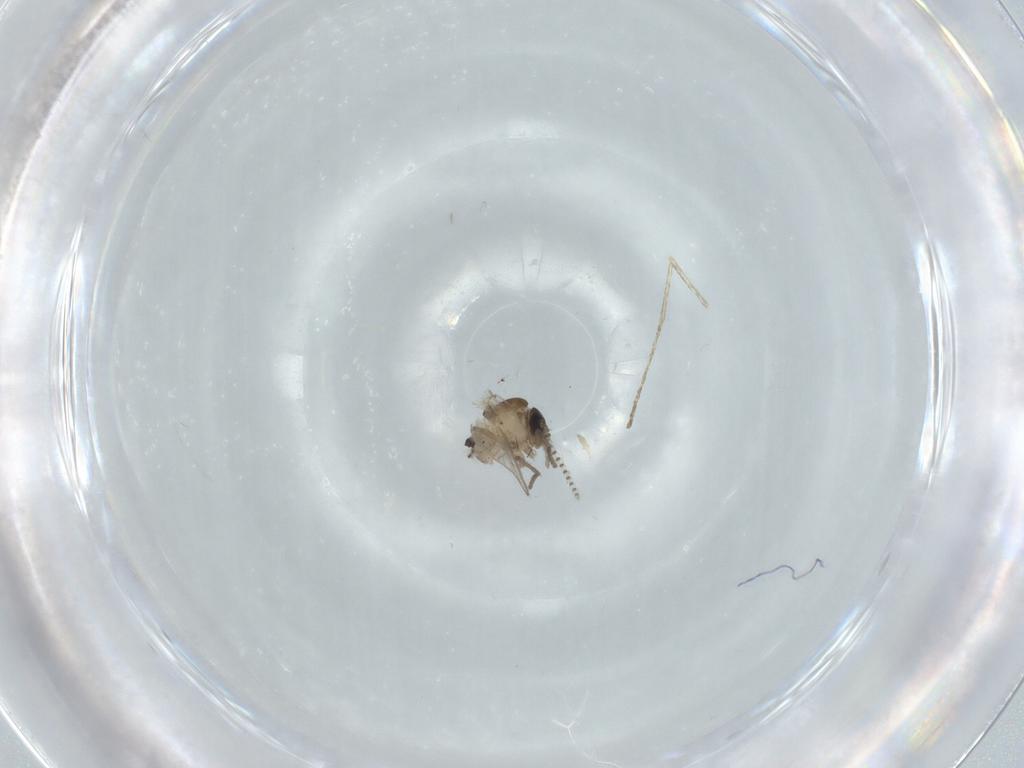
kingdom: Animalia
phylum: Arthropoda
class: Insecta
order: Diptera
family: Psychodidae
